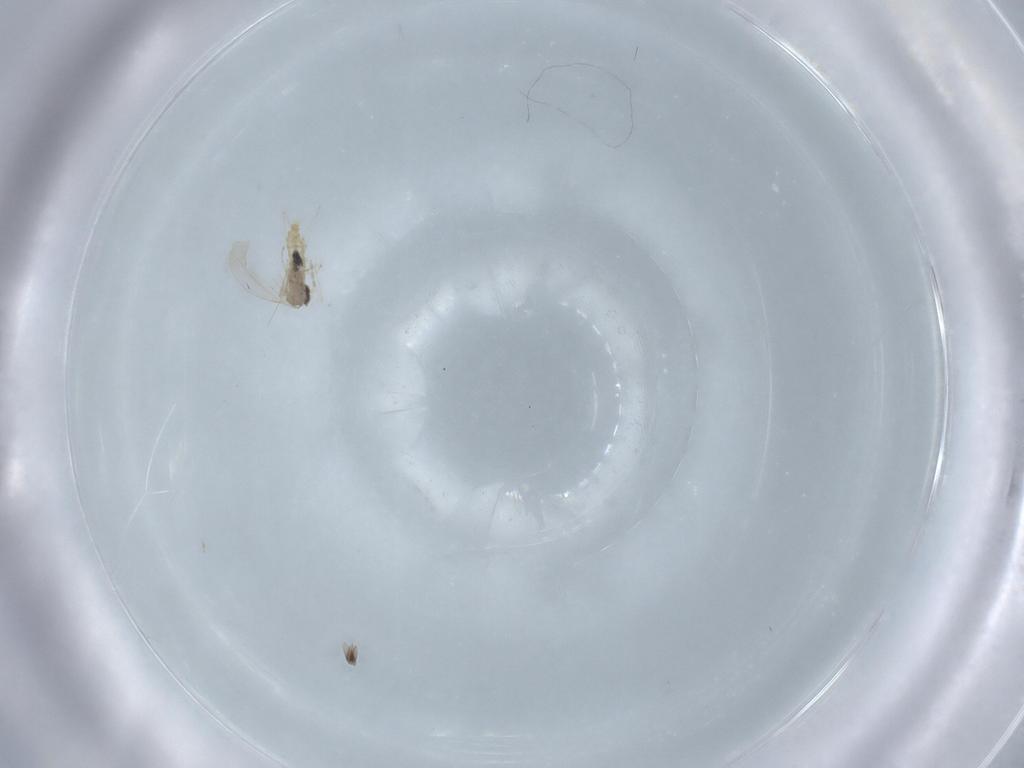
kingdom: Animalia
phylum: Arthropoda
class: Insecta
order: Diptera
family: Cecidomyiidae
